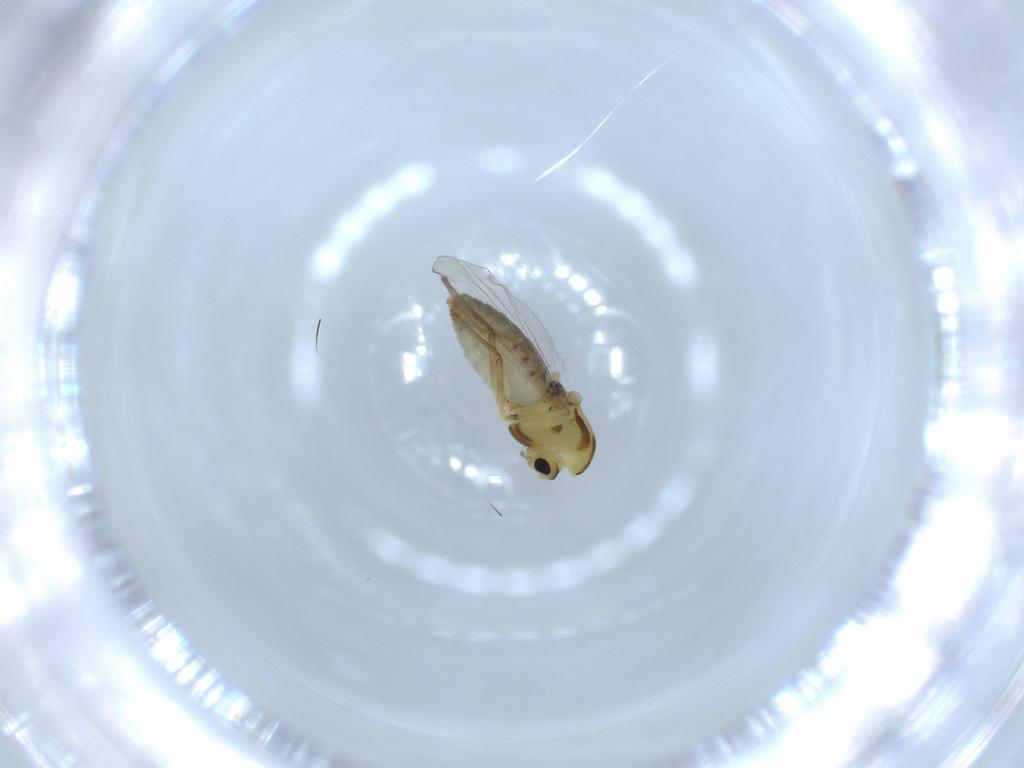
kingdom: Animalia
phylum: Arthropoda
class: Insecta
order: Diptera
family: Chironomidae
